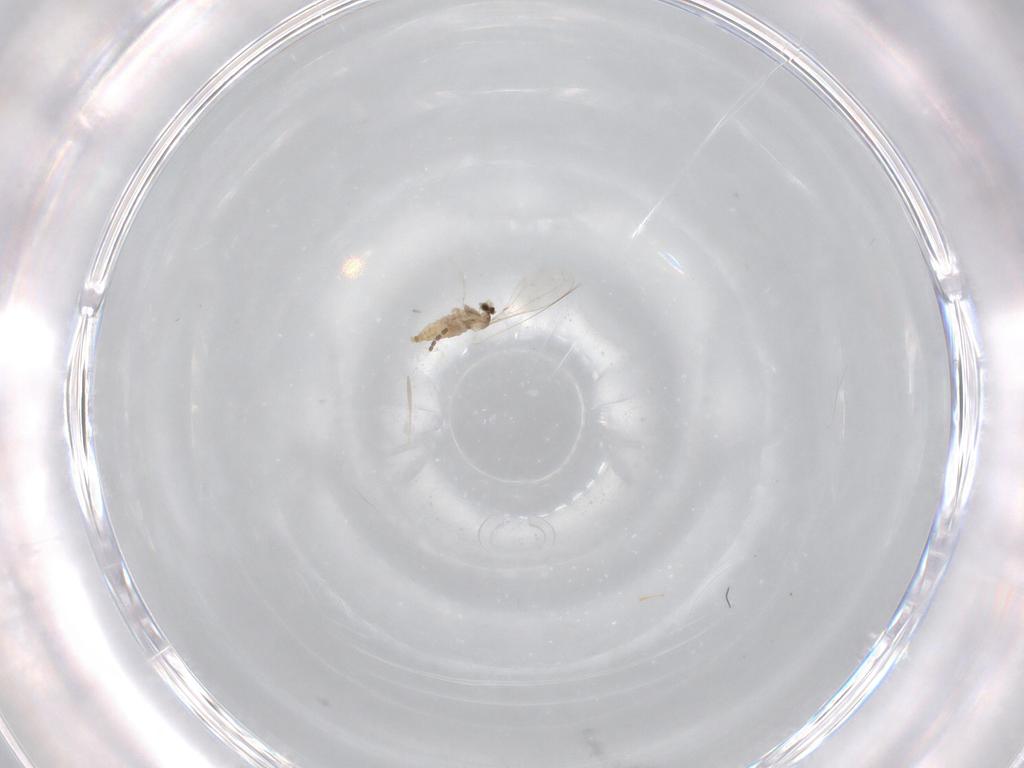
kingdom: Animalia
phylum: Arthropoda
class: Insecta
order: Diptera
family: Cecidomyiidae
